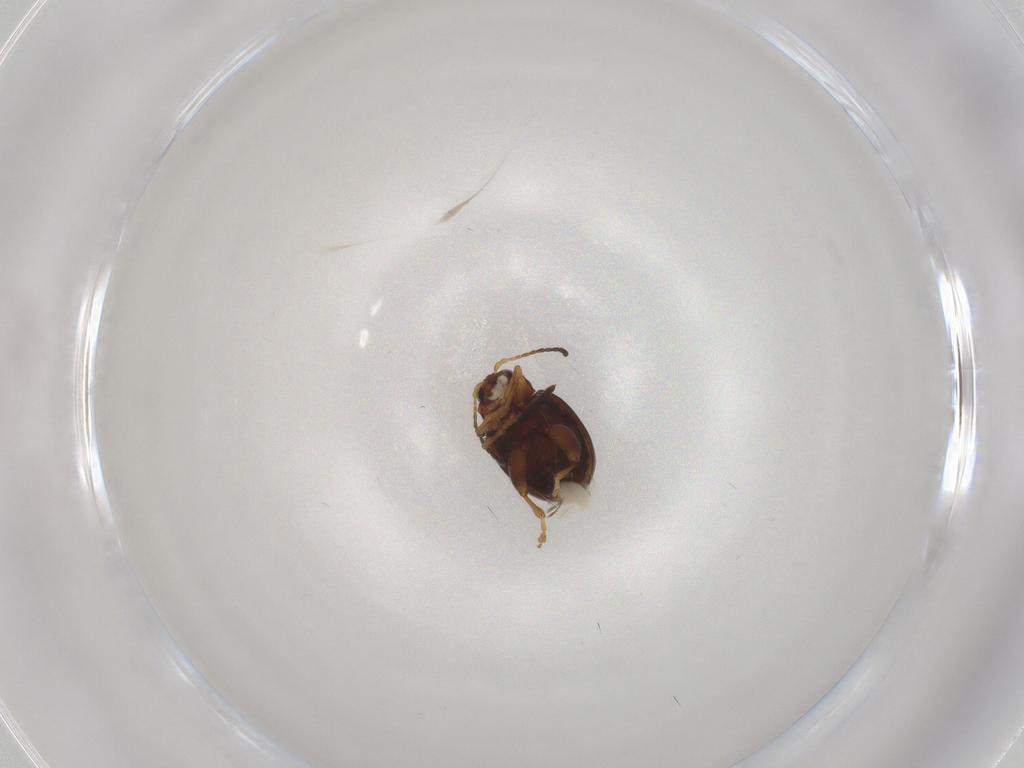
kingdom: Animalia
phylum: Arthropoda
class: Insecta
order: Coleoptera
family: Chrysomelidae
